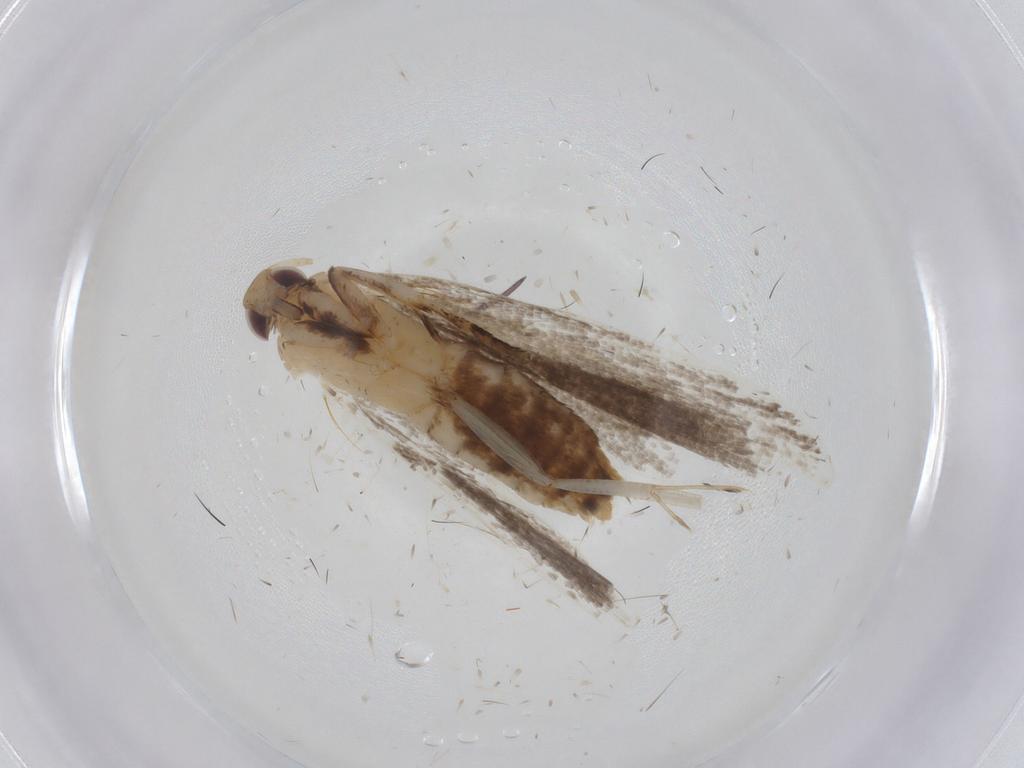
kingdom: Animalia
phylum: Arthropoda
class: Insecta
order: Lepidoptera
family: Crambidae
